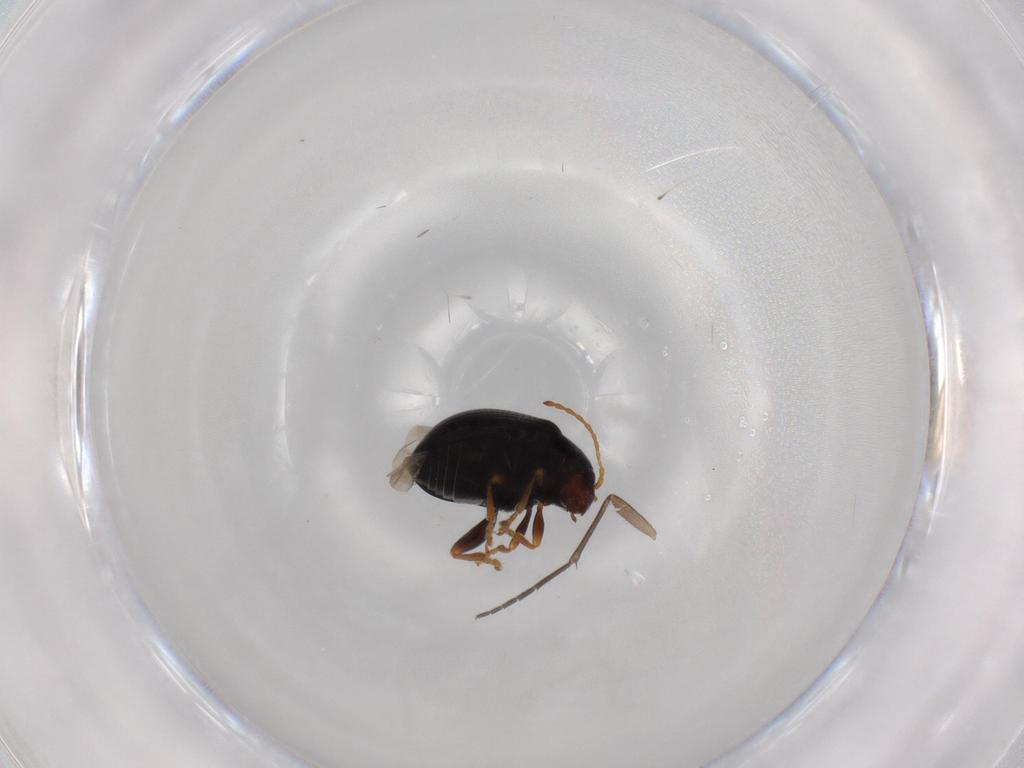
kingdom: Animalia
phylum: Arthropoda
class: Insecta
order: Coleoptera
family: Chrysomelidae
